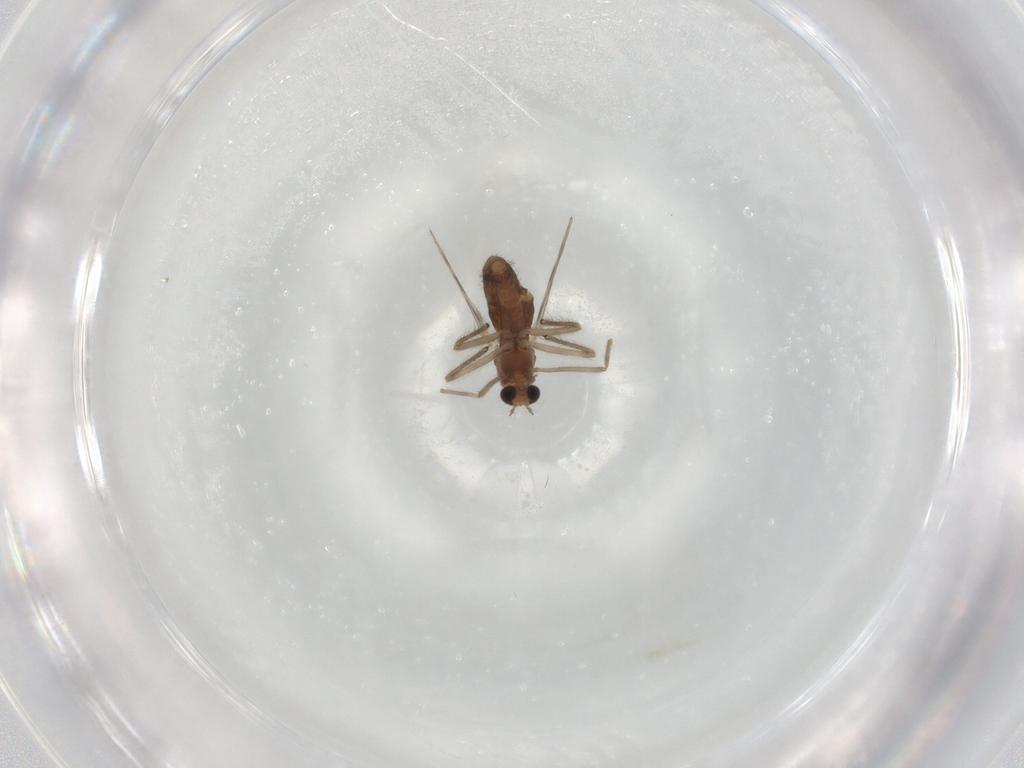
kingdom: Animalia
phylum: Arthropoda
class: Insecta
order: Diptera
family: Chironomidae
